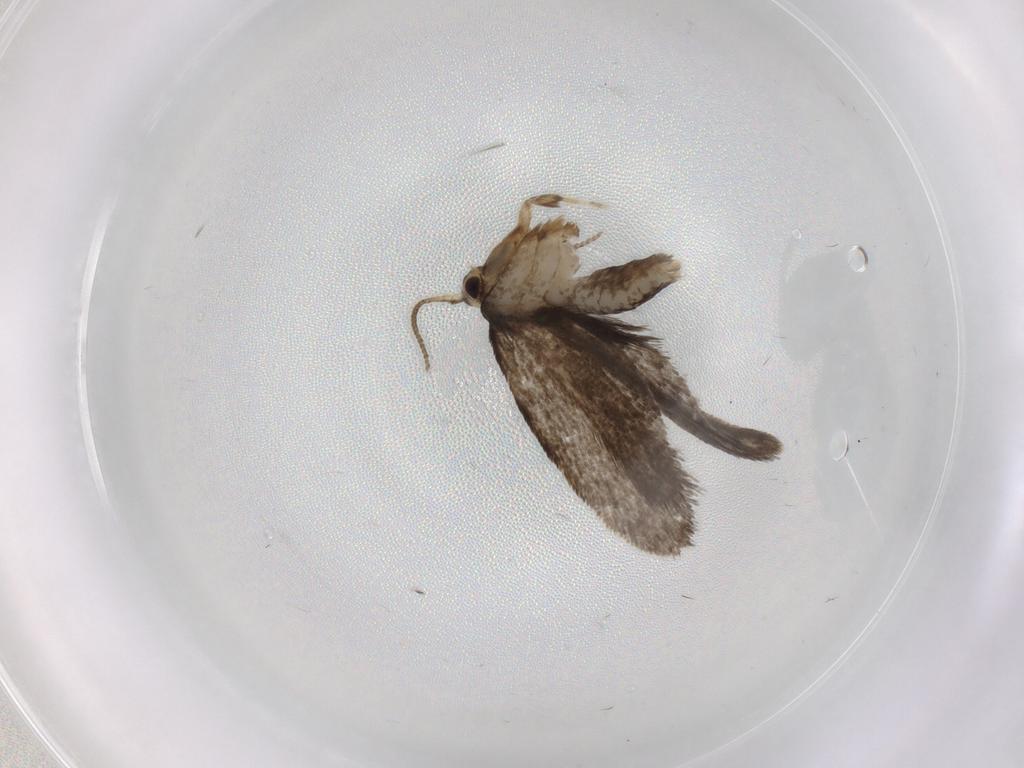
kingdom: Animalia
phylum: Arthropoda
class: Insecta
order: Lepidoptera
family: Psychidae
